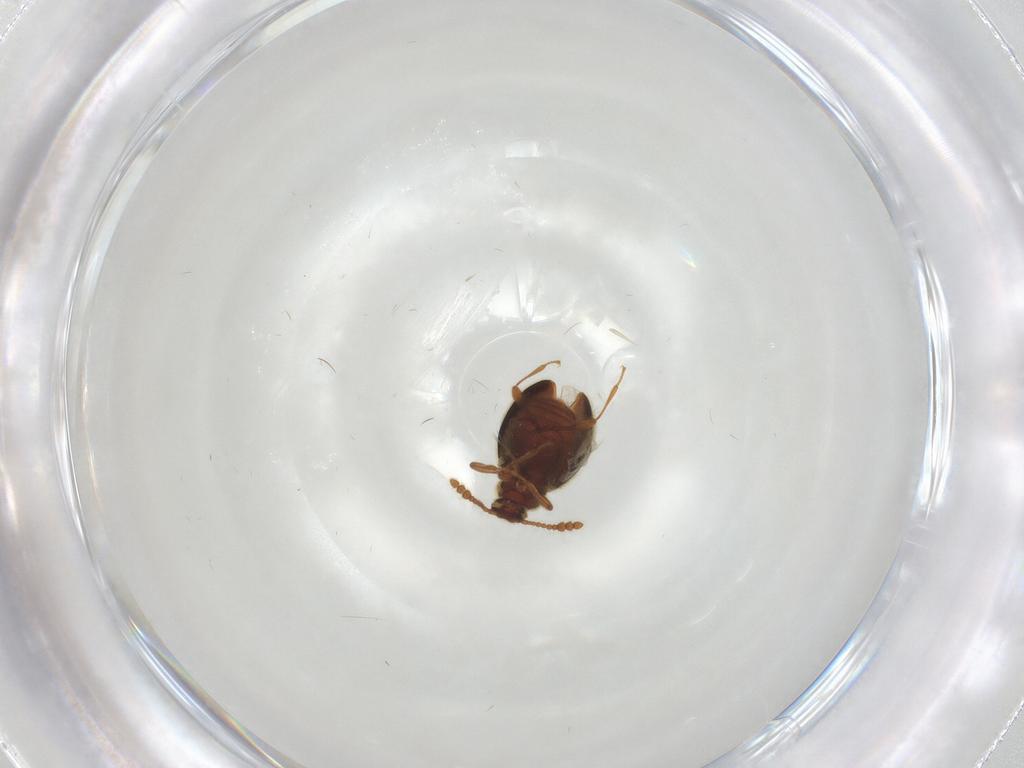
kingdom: Animalia
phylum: Arthropoda
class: Insecta
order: Coleoptera
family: Staphylinidae
